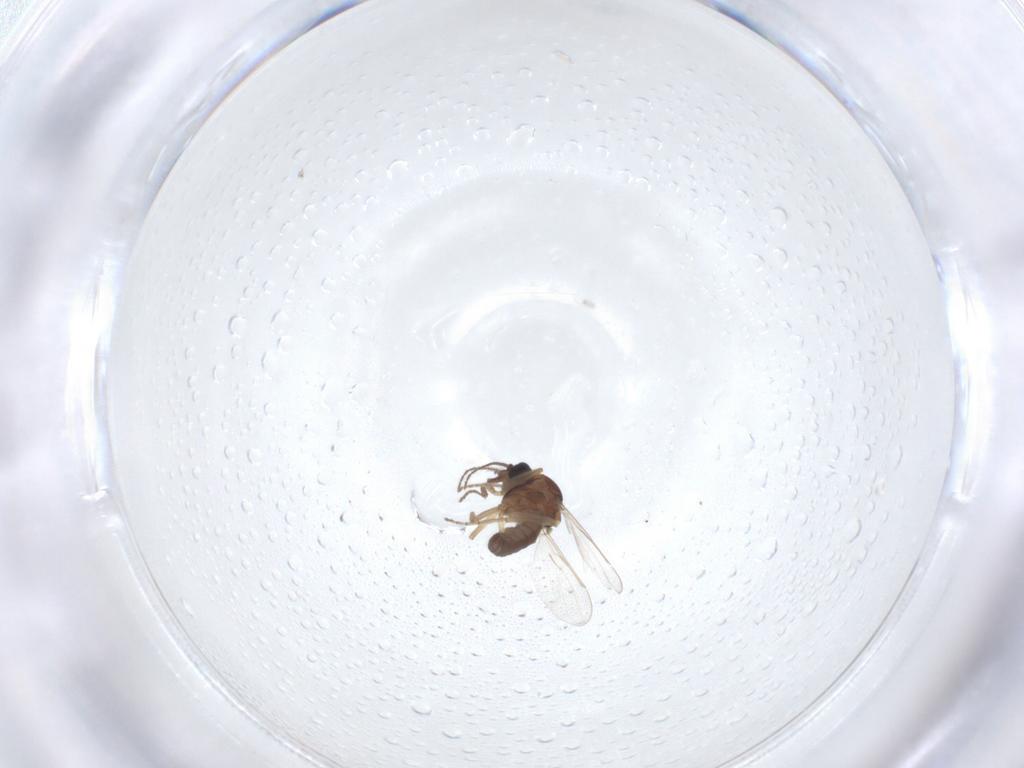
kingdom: Animalia
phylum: Arthropoda
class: Insecta
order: Diptera
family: Ceratopogonidae
